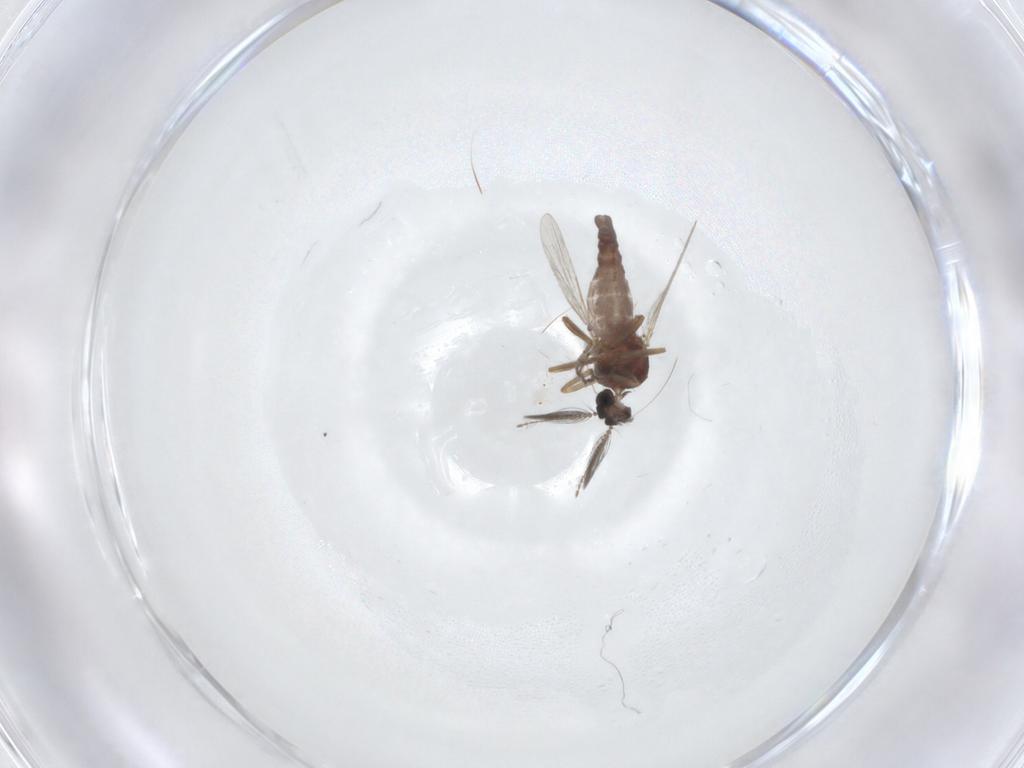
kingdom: Animalia
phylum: Arthropoda
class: Insecta
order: Diptera
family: Ceratopogonidae
